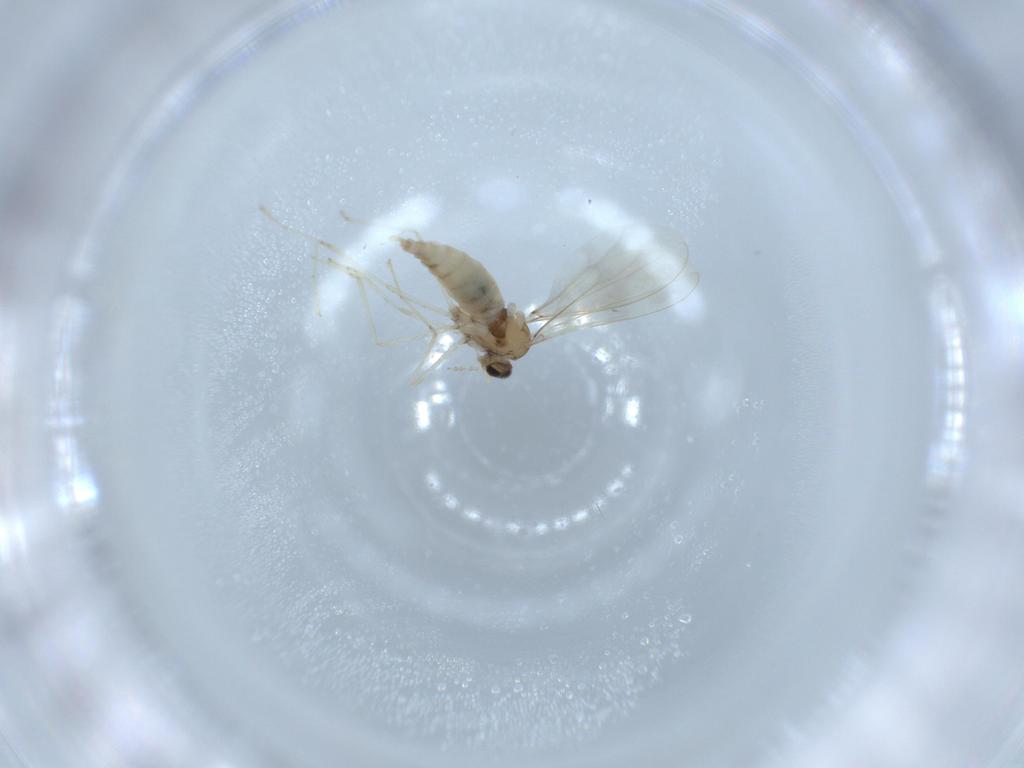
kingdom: Animalia
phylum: Arthropoda
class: Insecta
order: Diptera
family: Cecidomyiidae
